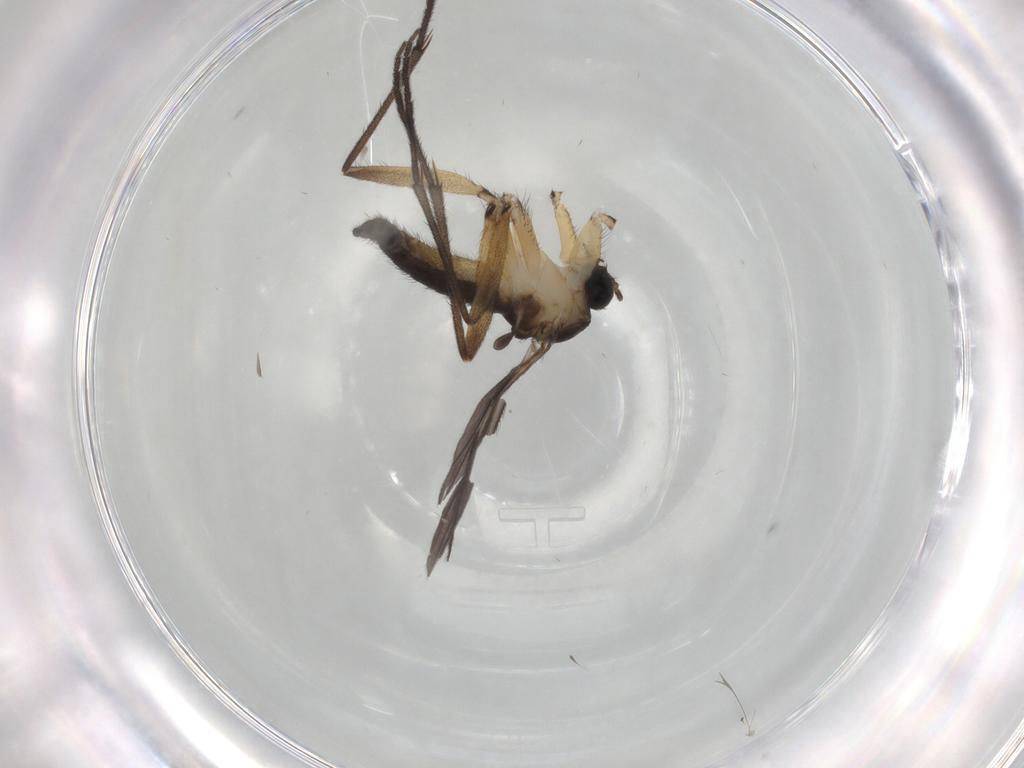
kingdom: Animalia
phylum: Arthropoda
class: Insecta
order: Diptera
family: Sciaridae
